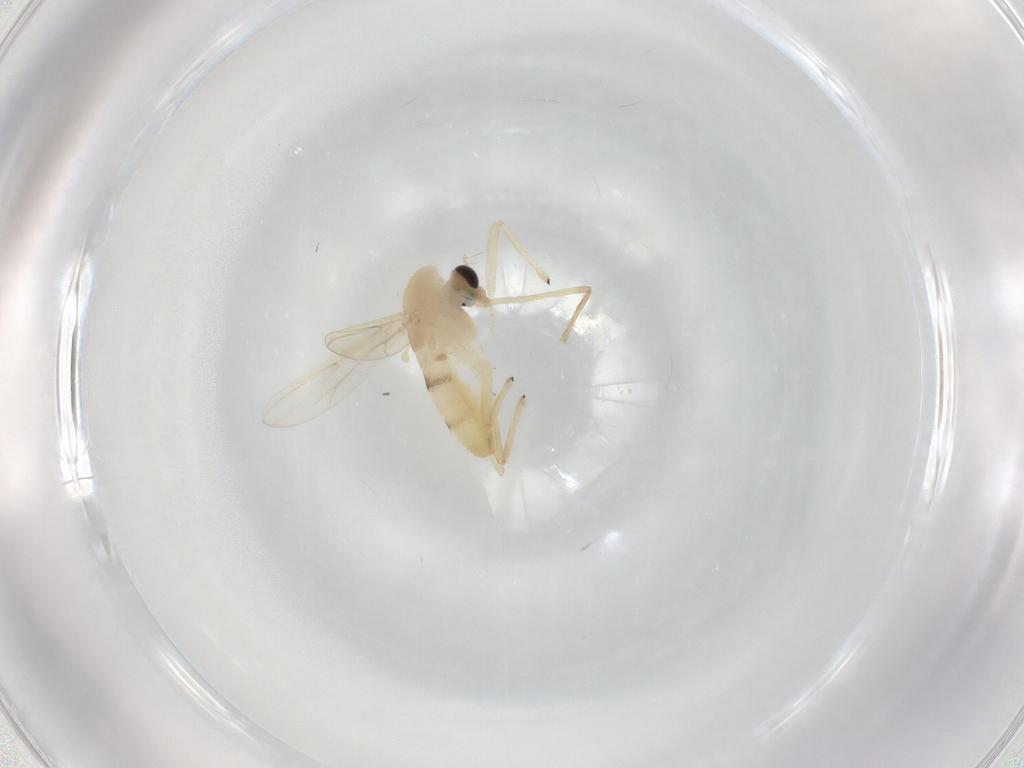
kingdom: Animalia
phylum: Arthropoda
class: Insecta
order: Diptera
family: Chironomidae
